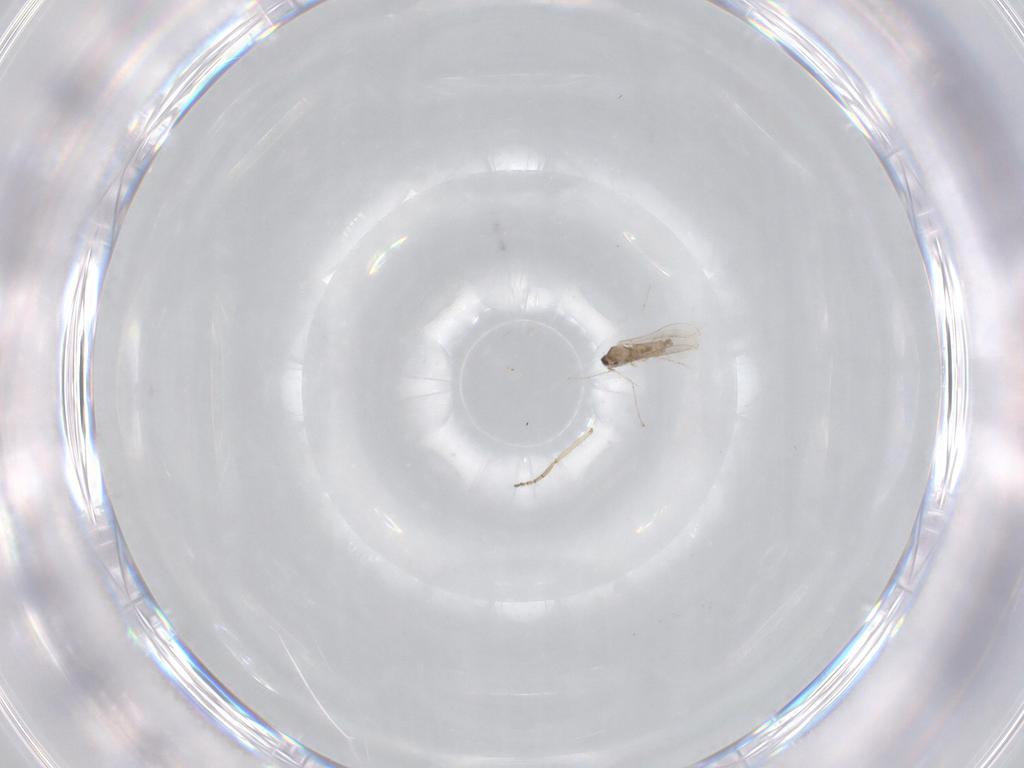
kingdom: Animalia
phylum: Arthropoda
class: Insecta
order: Diptera
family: Cecidomyiidae
